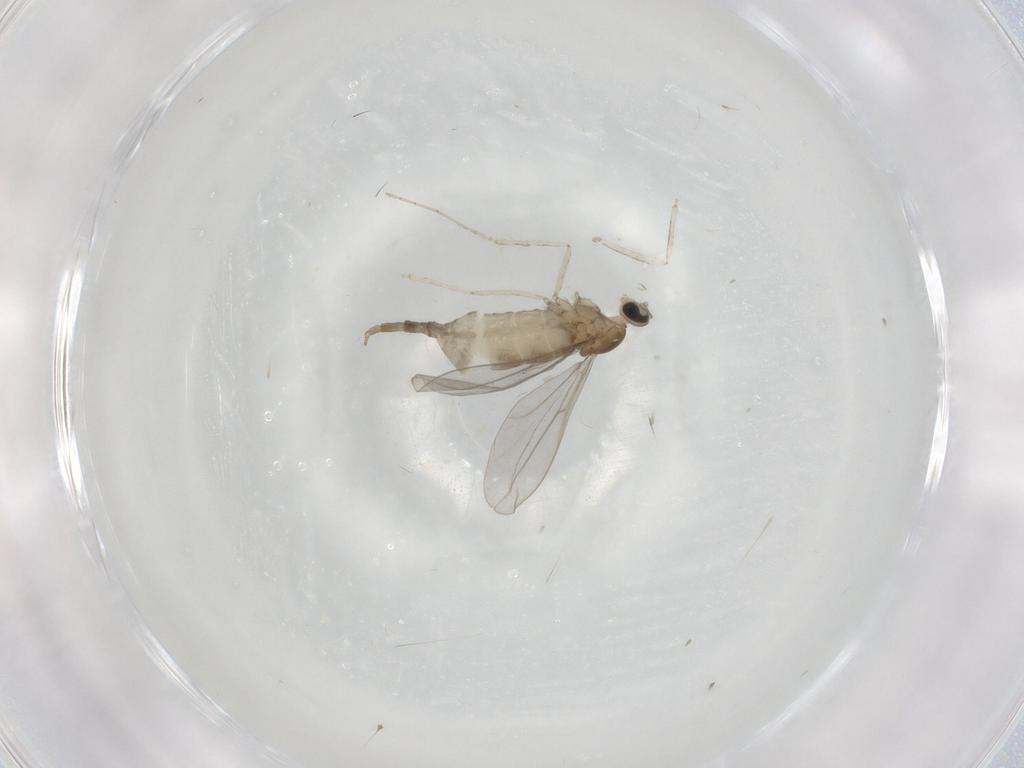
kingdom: Animalia
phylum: Arthropoda
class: Insecta
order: Diptera
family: Cecidomyiidae
